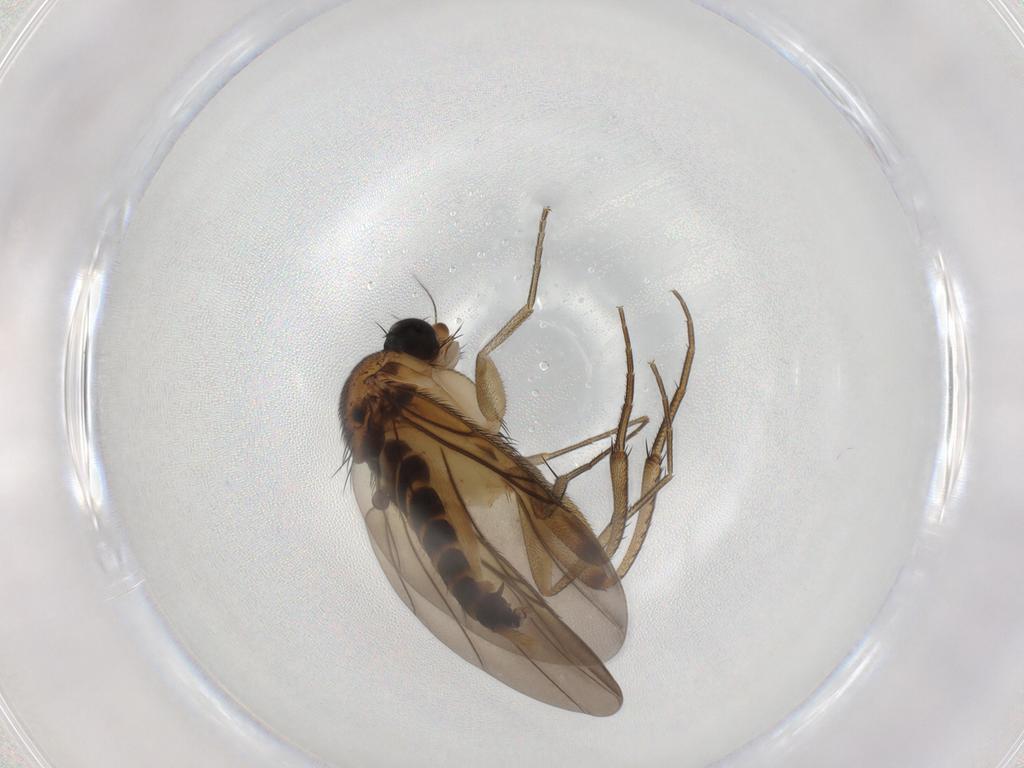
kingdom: Animalia
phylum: Arthropoda
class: Insecta
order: Diptera
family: Phoridae
